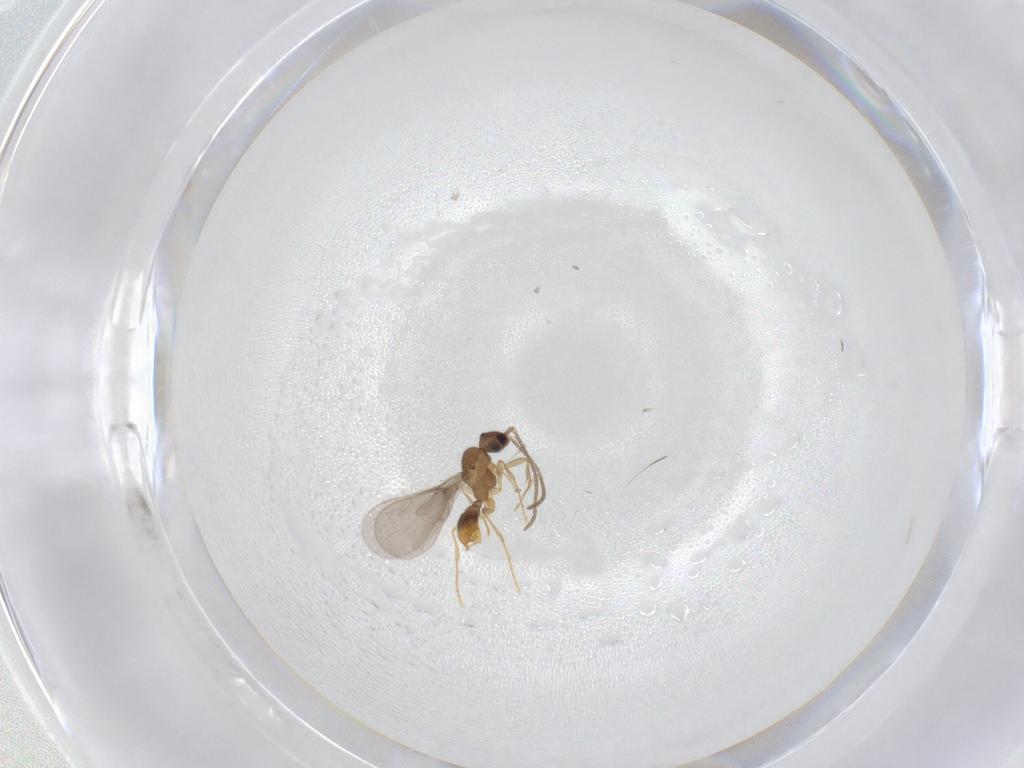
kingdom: Animalia
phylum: Arthropoda
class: Insecta
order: Hymenoptera
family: Formicidae
